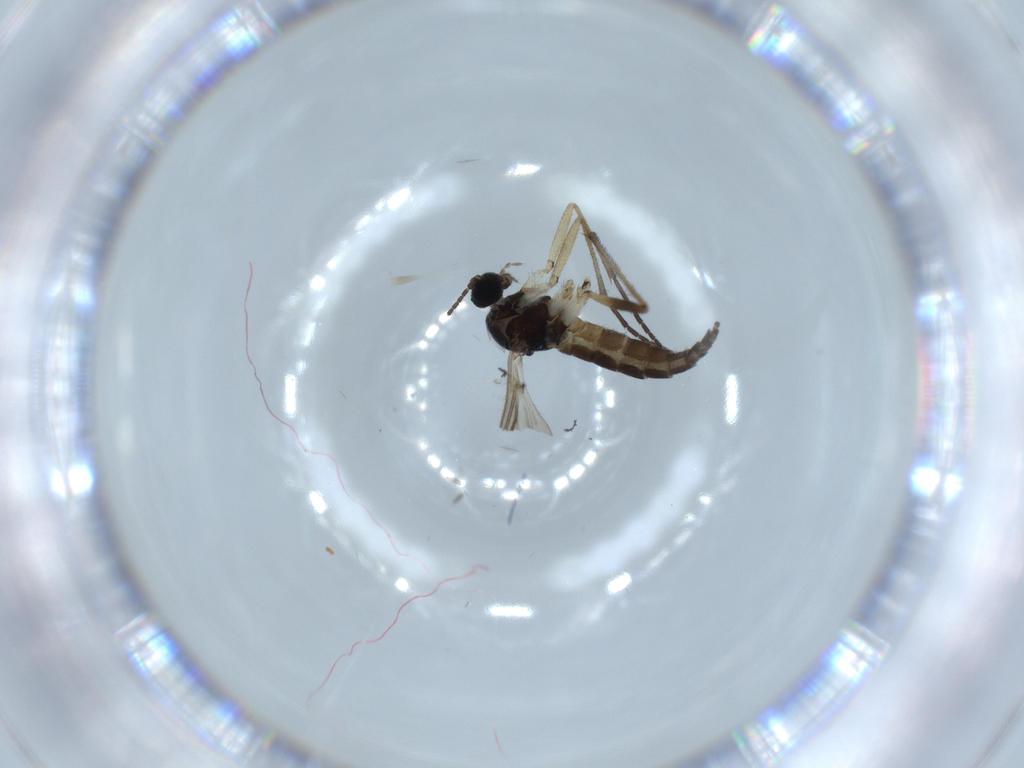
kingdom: Animalia
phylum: Arthropoda
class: Insecta
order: Diptera
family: Sciaridae
